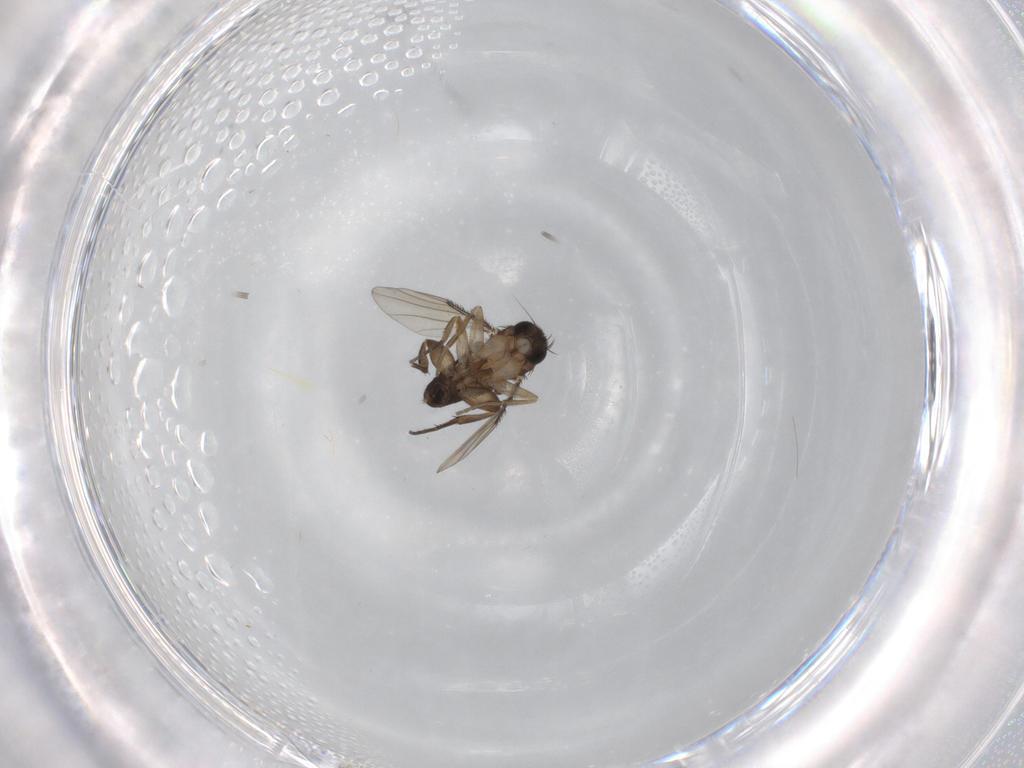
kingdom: Animalia
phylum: Arthropoda
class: Insecta
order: Diptera
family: Phoridae
